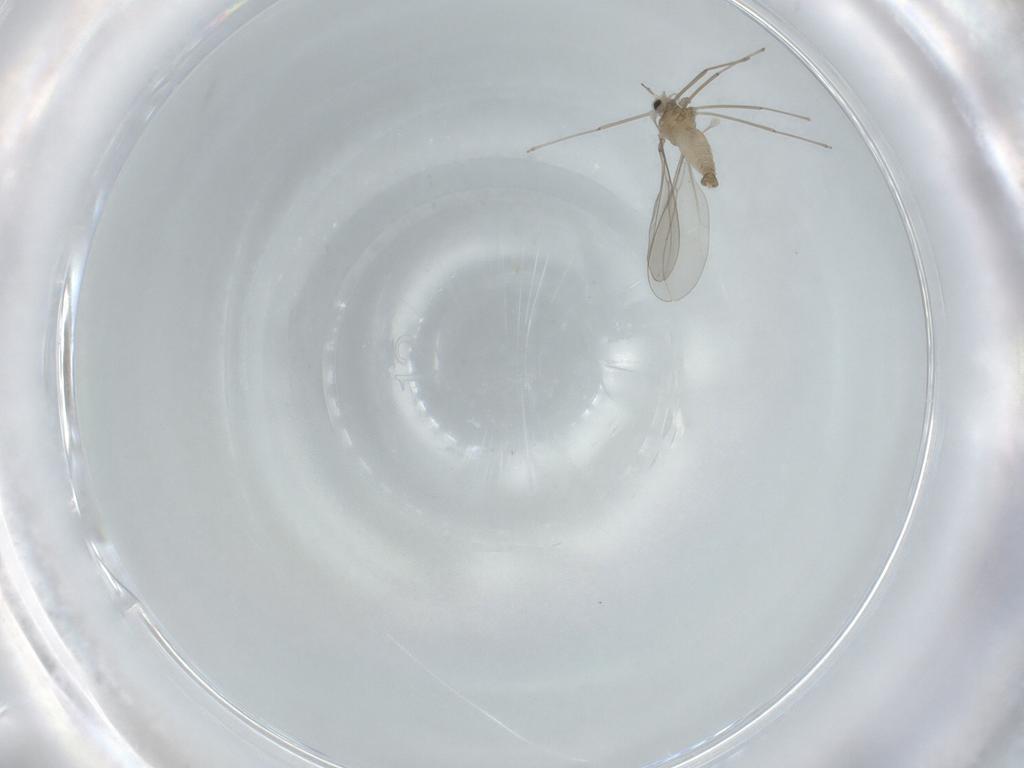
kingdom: Animalia
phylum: Arthropoda
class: Insecta
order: Diptera
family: Cecidomyiidae
